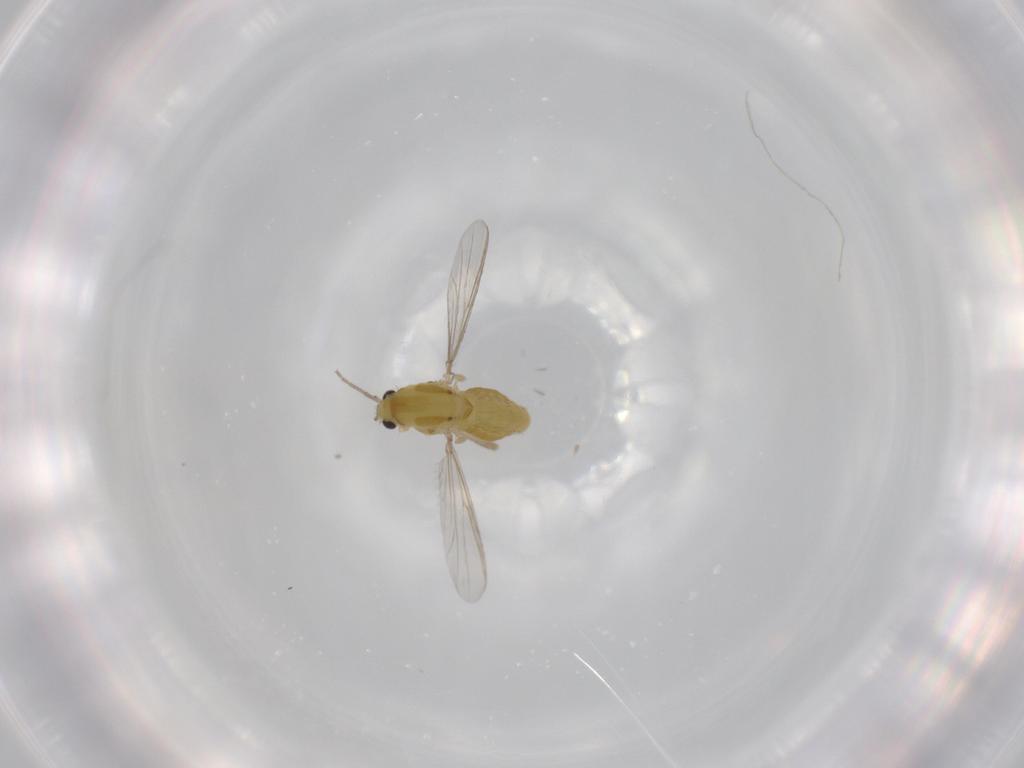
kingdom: Animalia
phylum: Arthropoda
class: Insecta
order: Diptera
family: Chironomidae
